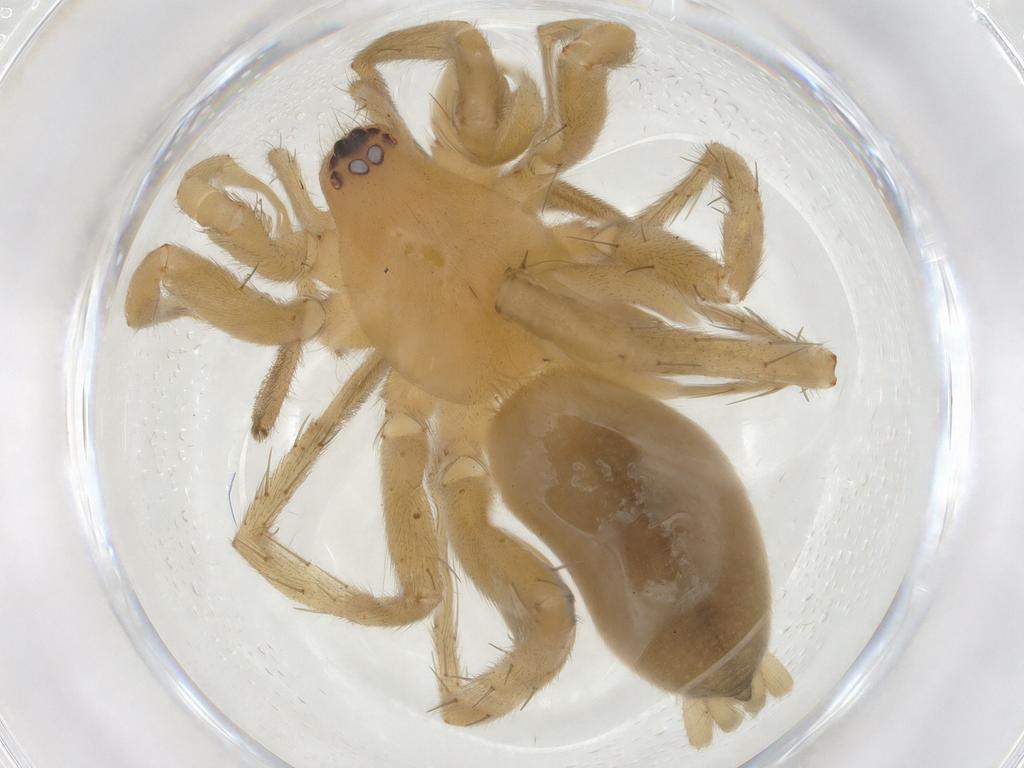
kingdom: Animalia
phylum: Arthropoda
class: Arachnida
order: Araneae
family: Gnaphosidae
